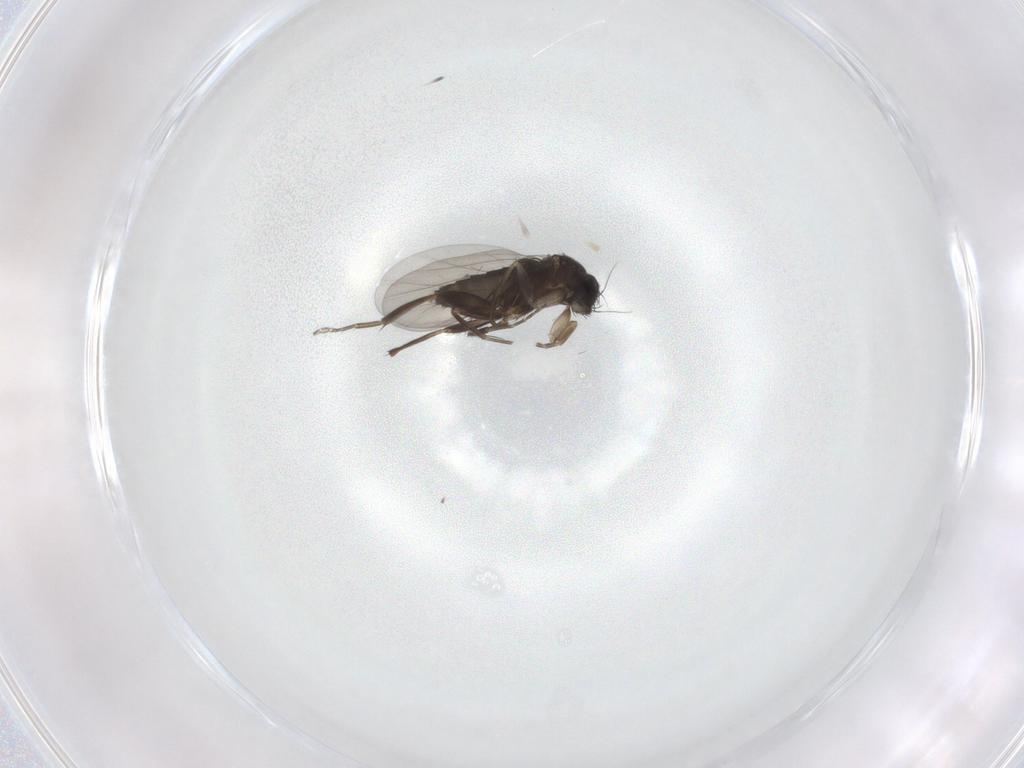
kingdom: Animalia
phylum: Arthropoda
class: Insecta
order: Diptera
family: Phoridae
